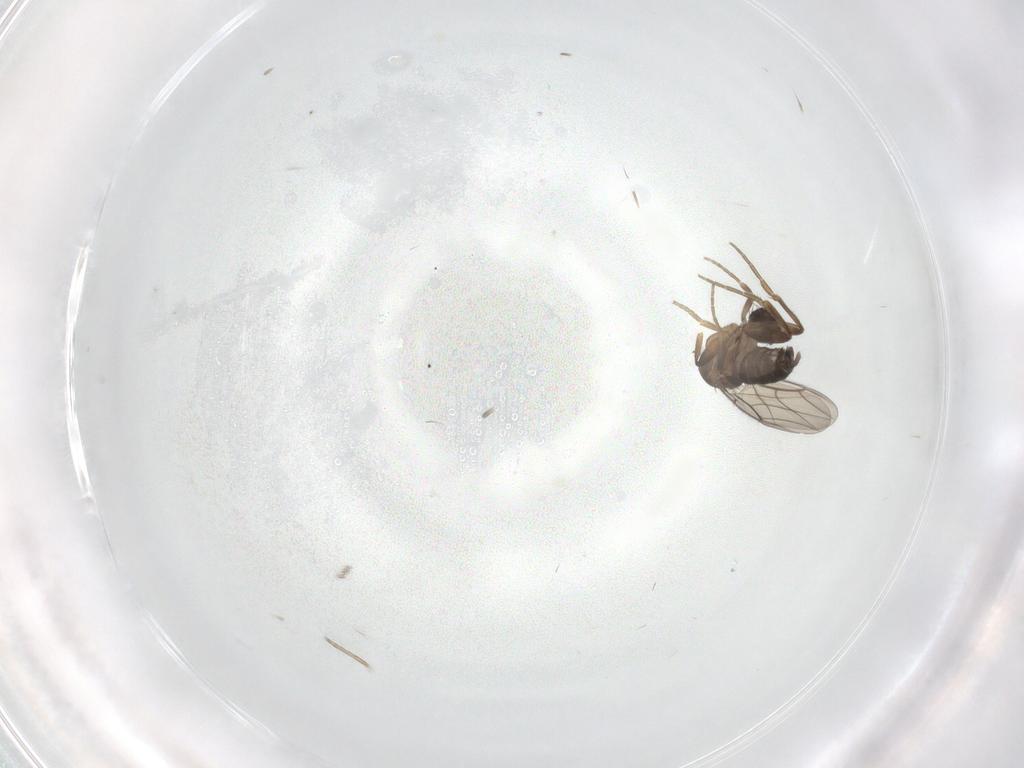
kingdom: Animalia
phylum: Arthropoda
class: Insecta
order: Diptera
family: Phoridae
